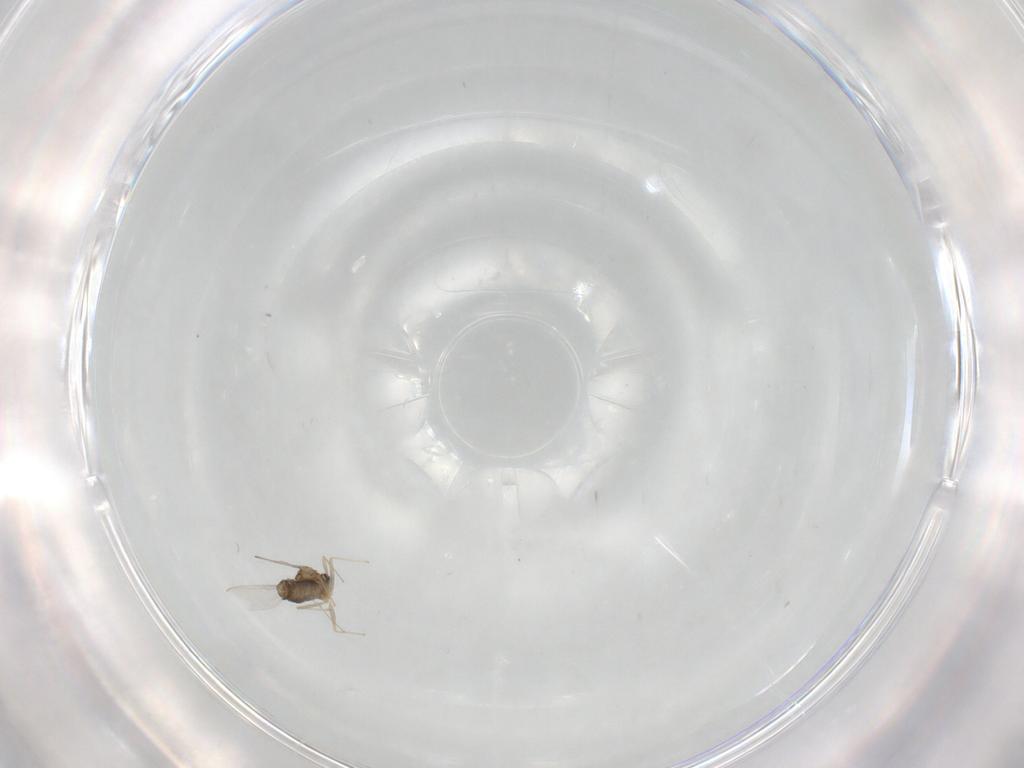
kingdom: Animalia
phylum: Arthropoda
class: Insecta
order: Diptera
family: Chironomidae
